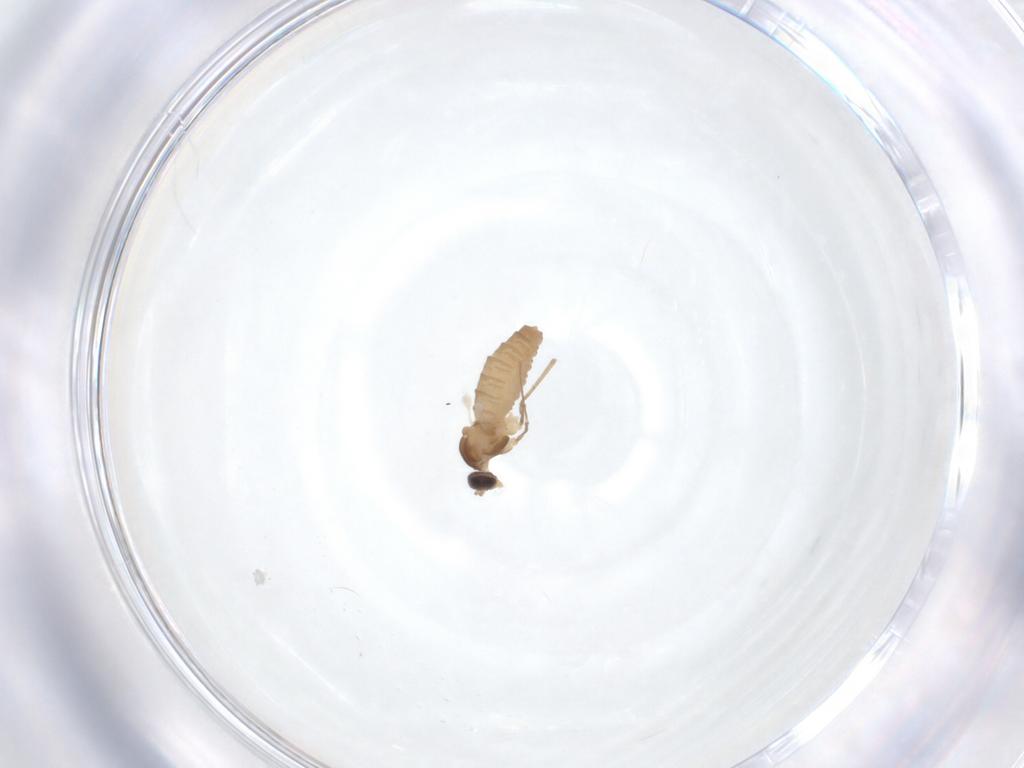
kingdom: Animalia
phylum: Arthropoda
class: Insecta
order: Diptera
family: Cecidomyiidae
